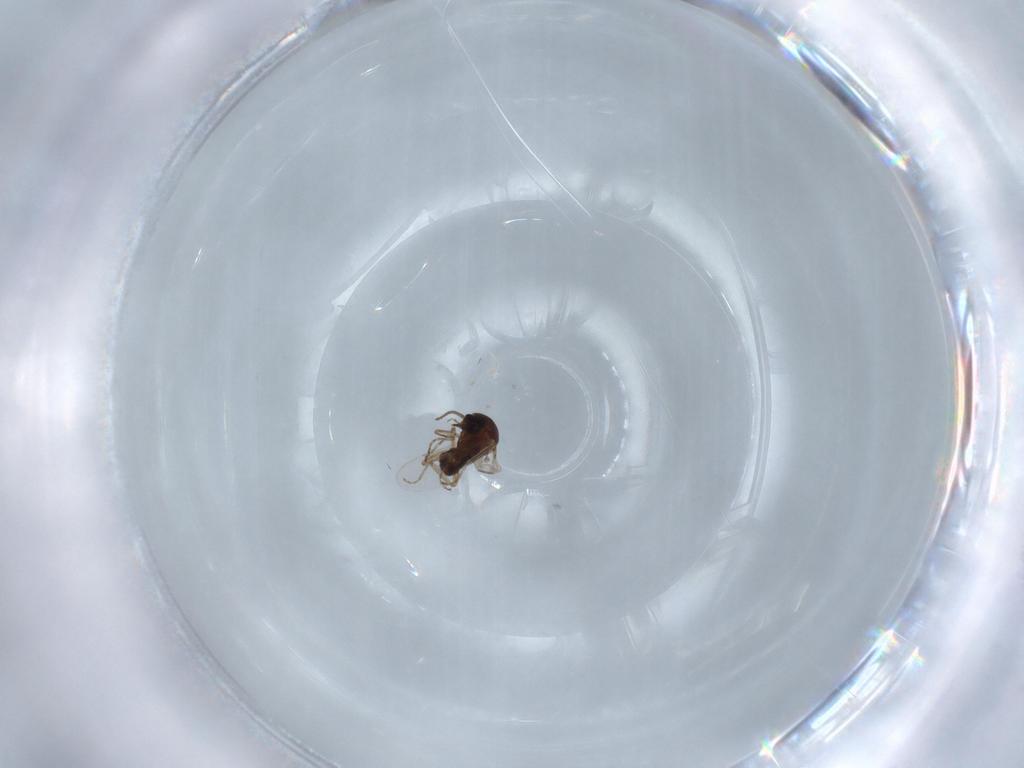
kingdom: Animalia
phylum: Arthropoda
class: Insecta
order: Diptera
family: Ceratopogonidae
